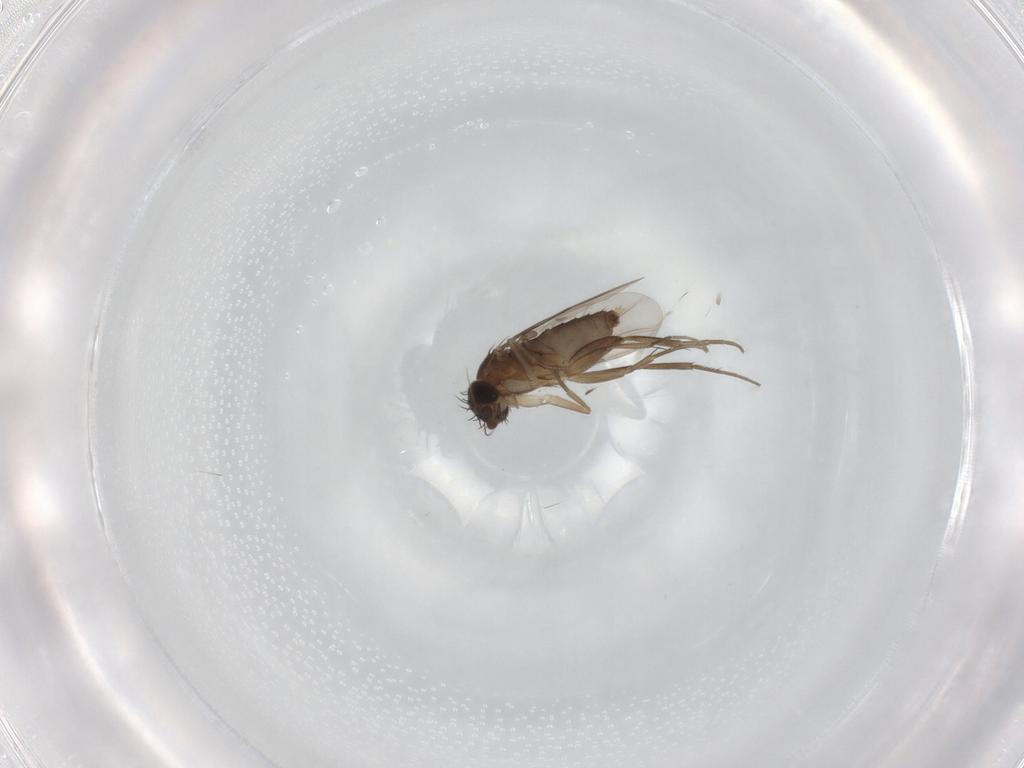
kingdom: Animalia
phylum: Arthropoda
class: Insecta
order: Diptera
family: Phoridae
